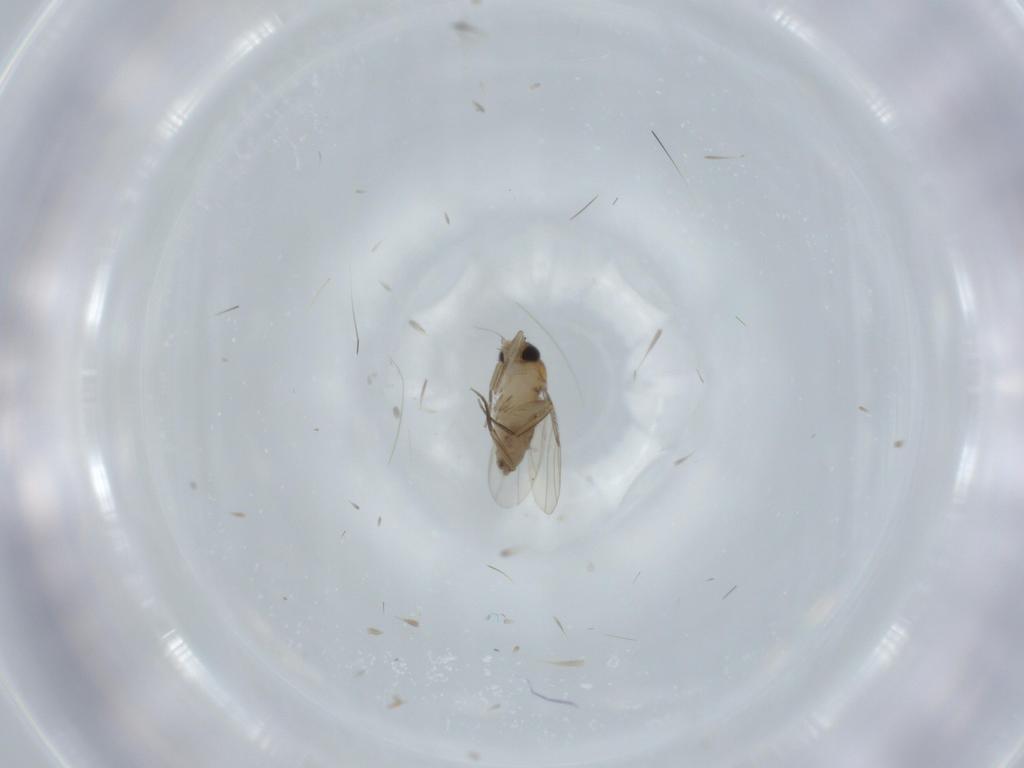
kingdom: Animalia
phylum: Arthropoda
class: Insecta
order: Diptera
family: Phoridae
